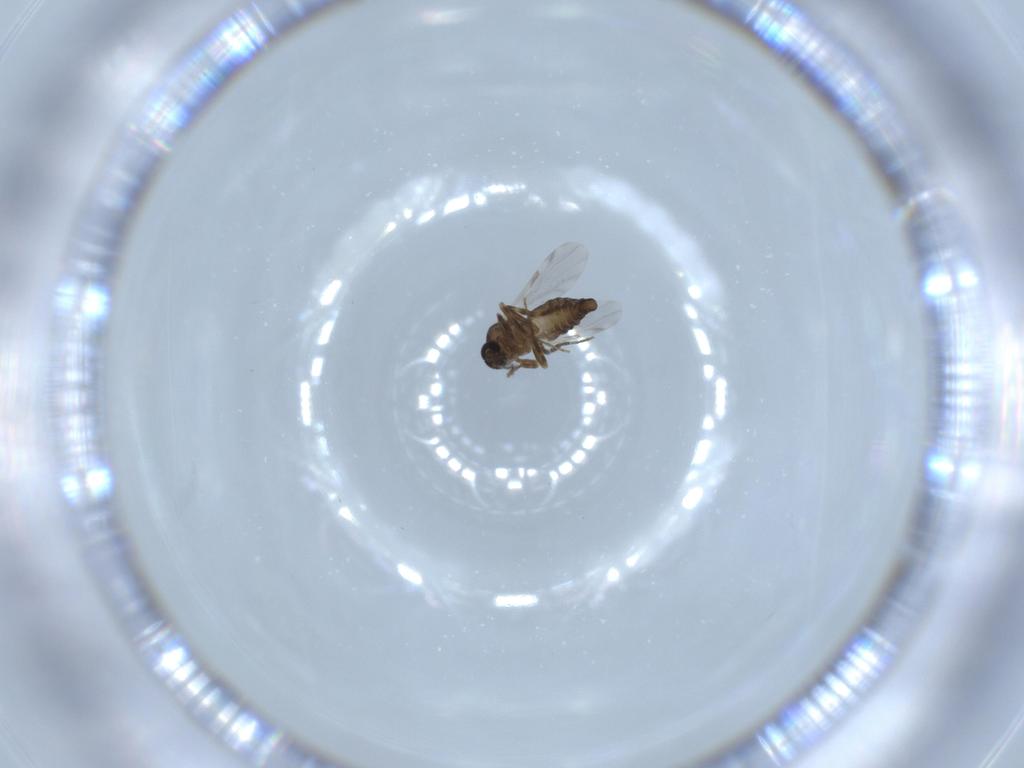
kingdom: Animalia
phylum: Arthropoda
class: Insecta
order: Diptera
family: Ceratopogonidae
